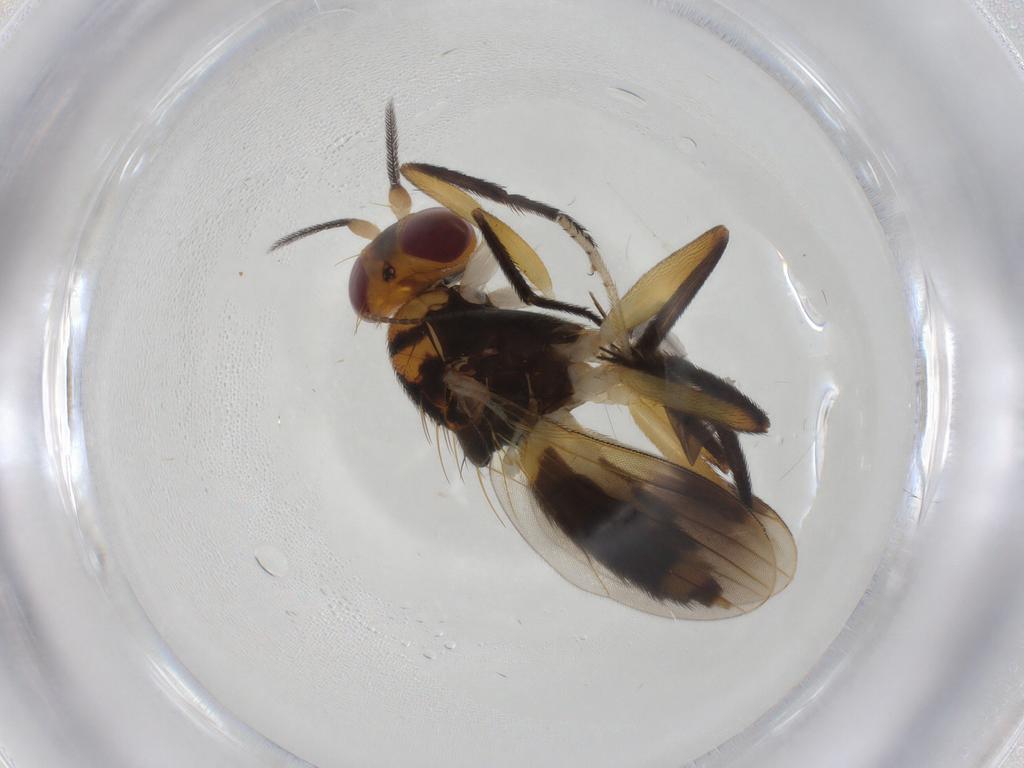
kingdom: Animalia
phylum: Arthropoda
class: Insecta
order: Diptera
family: Sphaeroceridae
